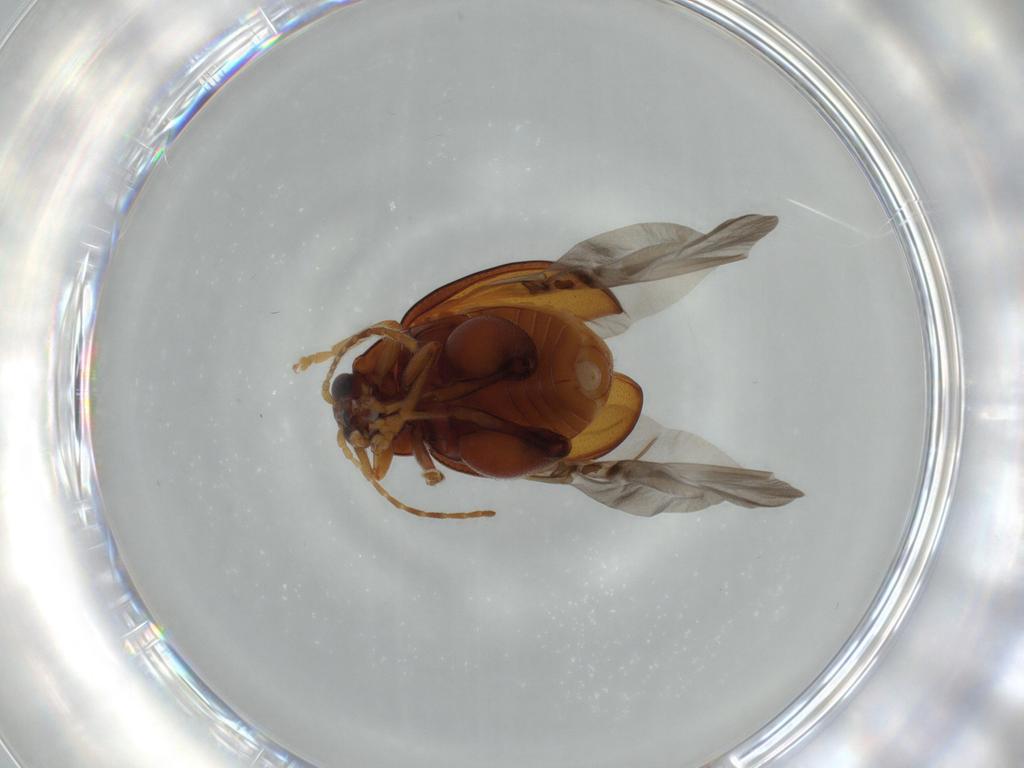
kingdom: Animalia
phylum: Arthropoda
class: Insecta
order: Coleoptera
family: Chrysomelidae
